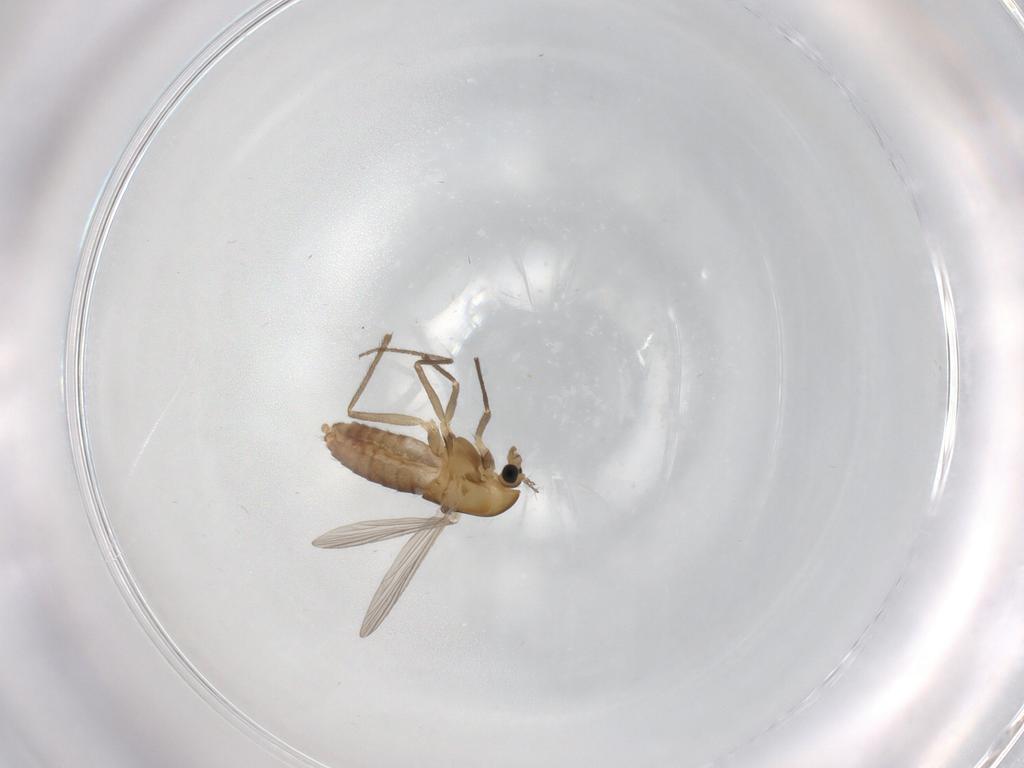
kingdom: Animalia
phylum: Arthropoda
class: Insecta
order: Diptera
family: Chironomidae
